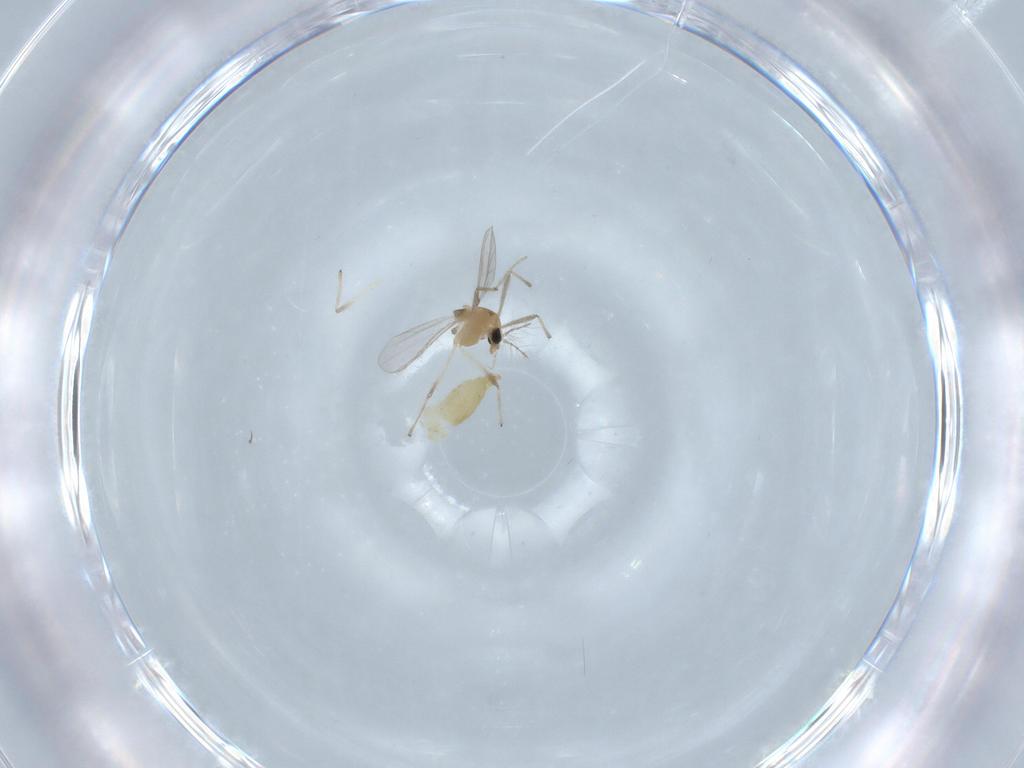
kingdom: Animalia
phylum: Arthropoda
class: Insecta
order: Diptera
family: Chironomidae
